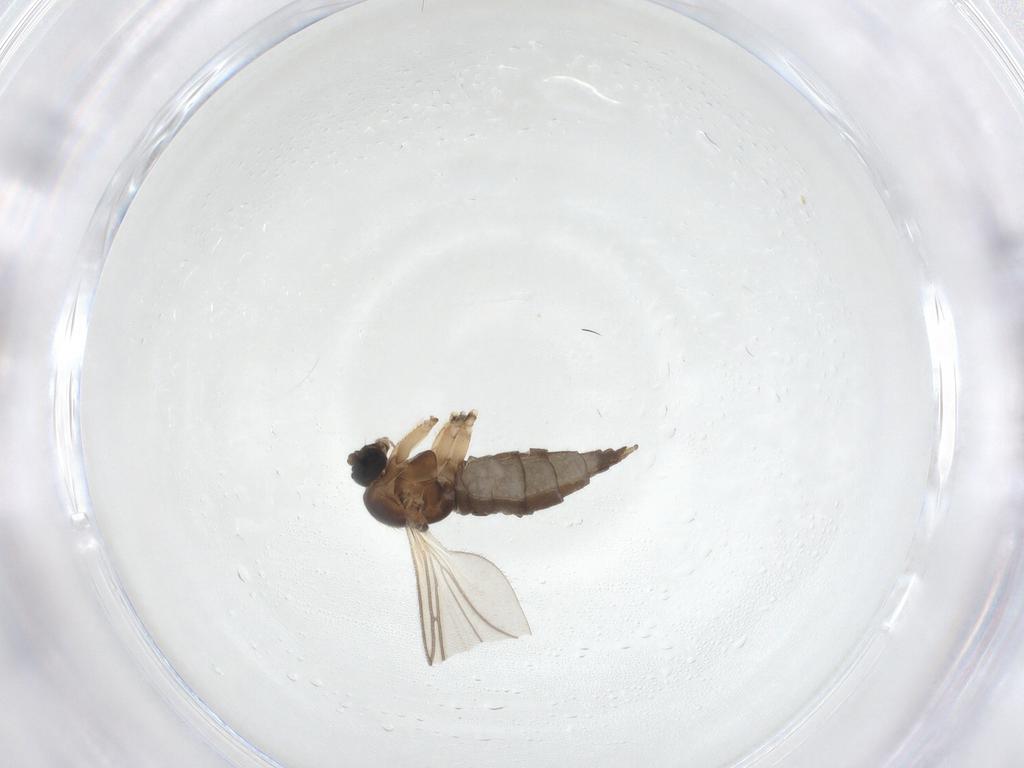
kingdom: Animalia
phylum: Arthropoda
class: Insecta
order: Diptera
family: Sciaridae
